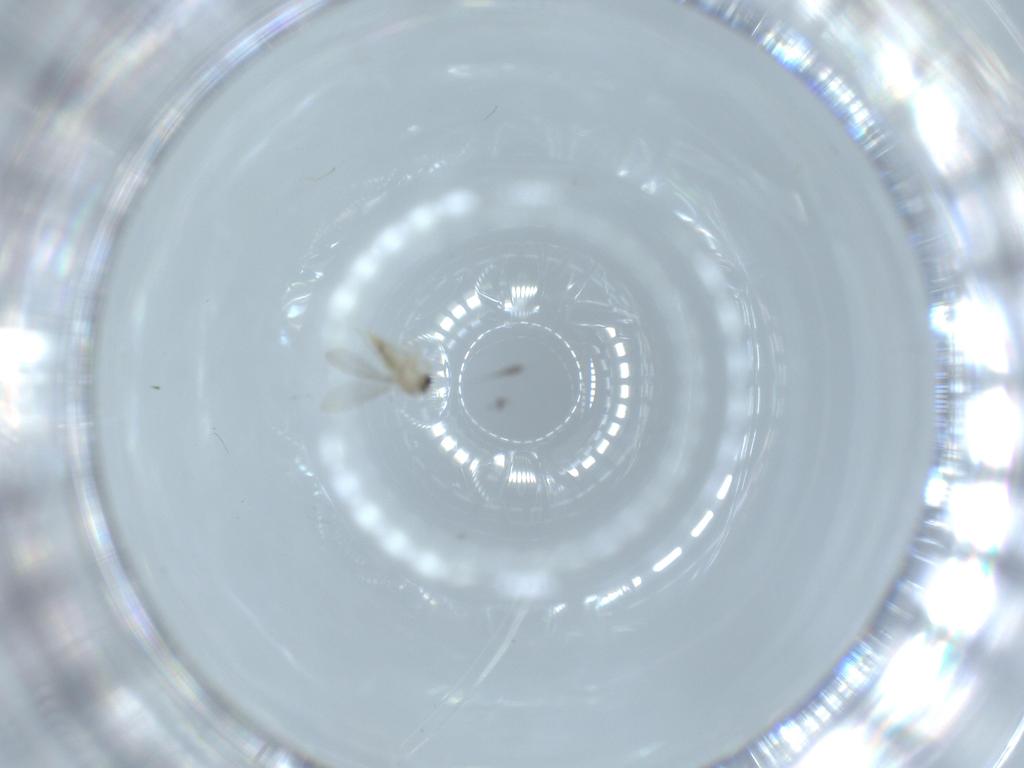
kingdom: Animalia
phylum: Arthropoda
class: Insecta
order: Diptera
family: Cecidomyiidae
